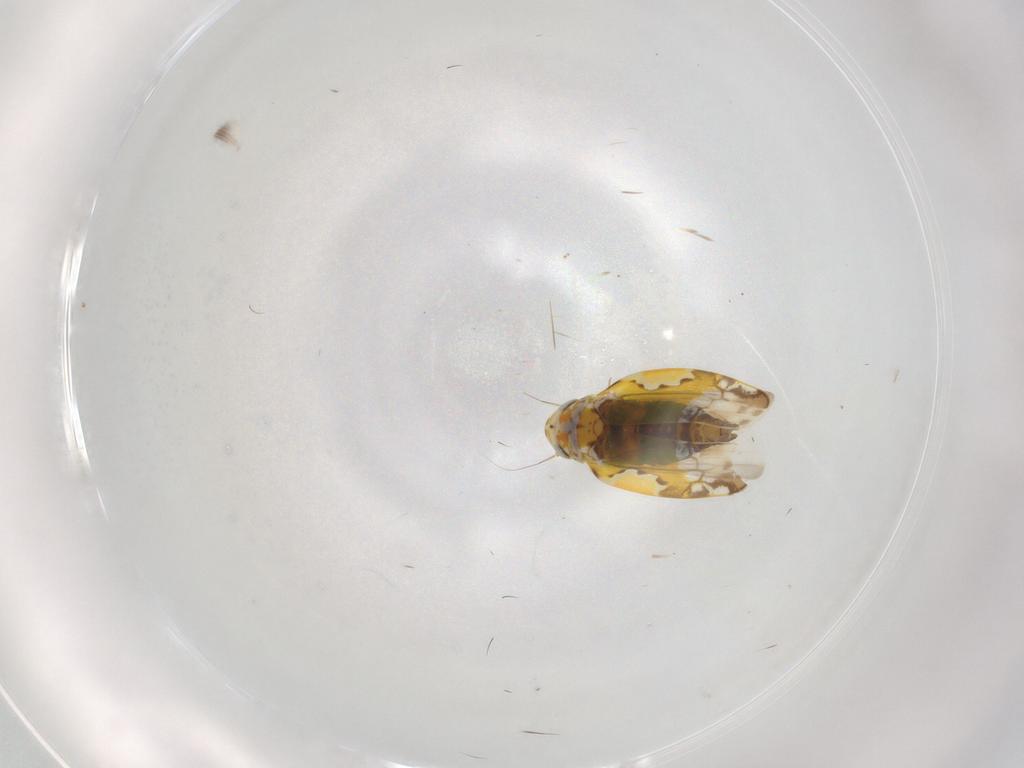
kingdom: Animalia
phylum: Arthropoda
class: Insecta
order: Hemiptera
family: Cicadellidae
